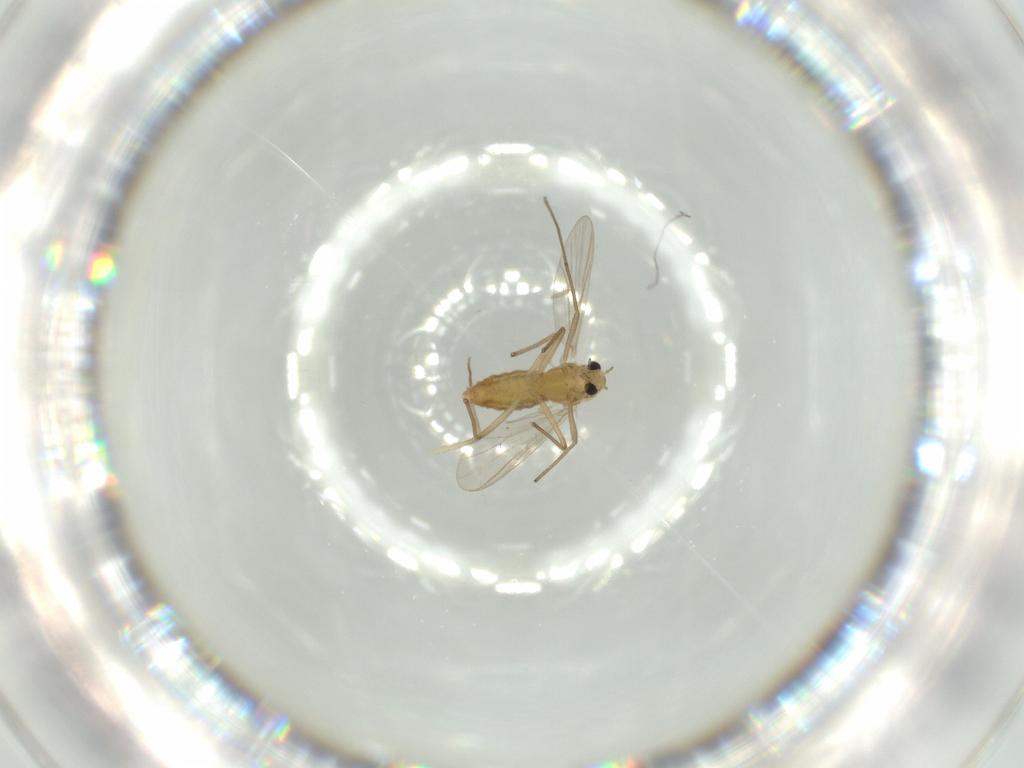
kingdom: Animalia
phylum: Arthropoda
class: Insecta
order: Diptera
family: Chironomidae
